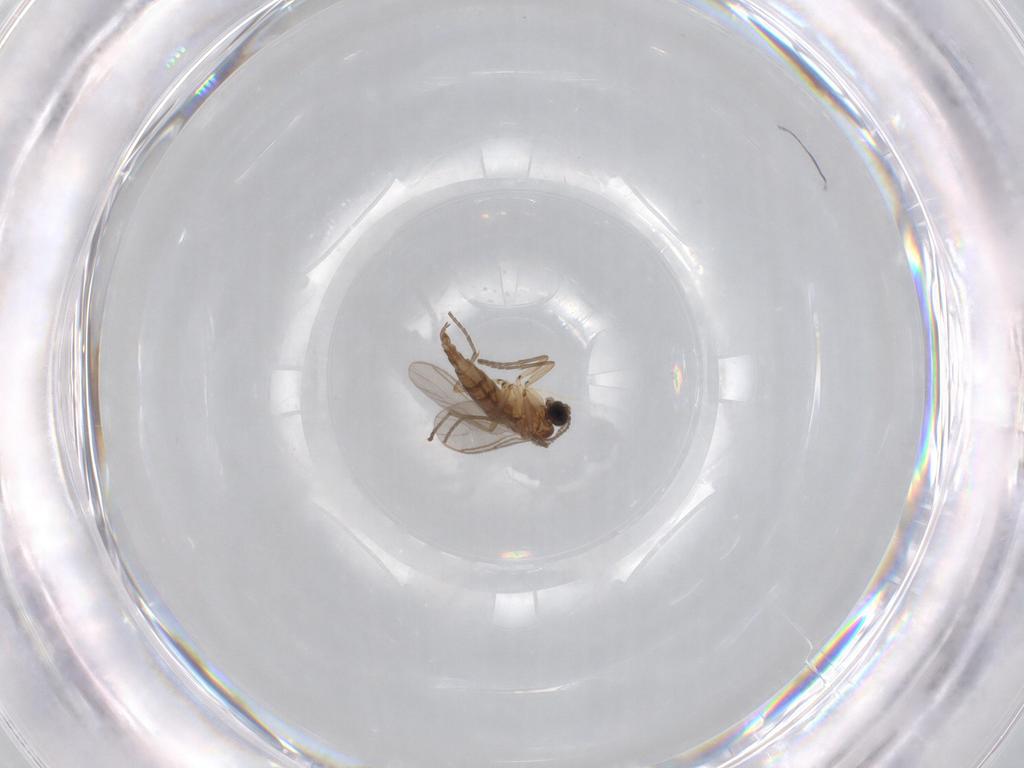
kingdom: Animalia
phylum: Arthropoda
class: Insecta
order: Diptera
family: Sciaridae
